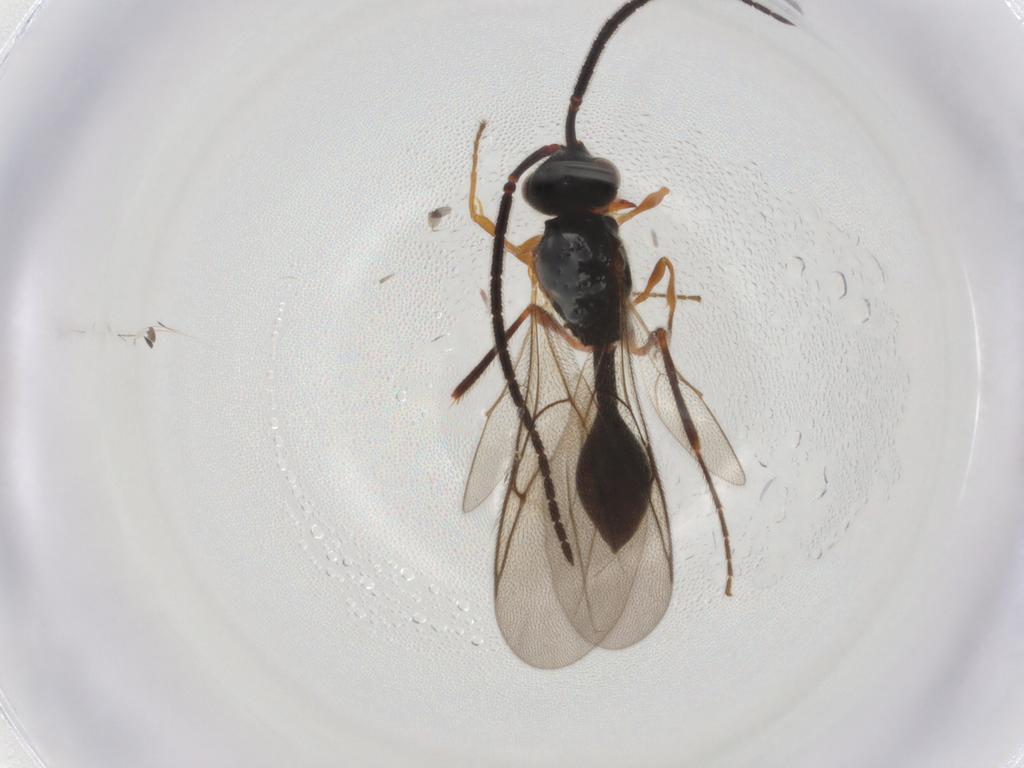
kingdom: Animalia
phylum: Arthropoda
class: Insecta
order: Hymenoptera
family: Diapriidae
